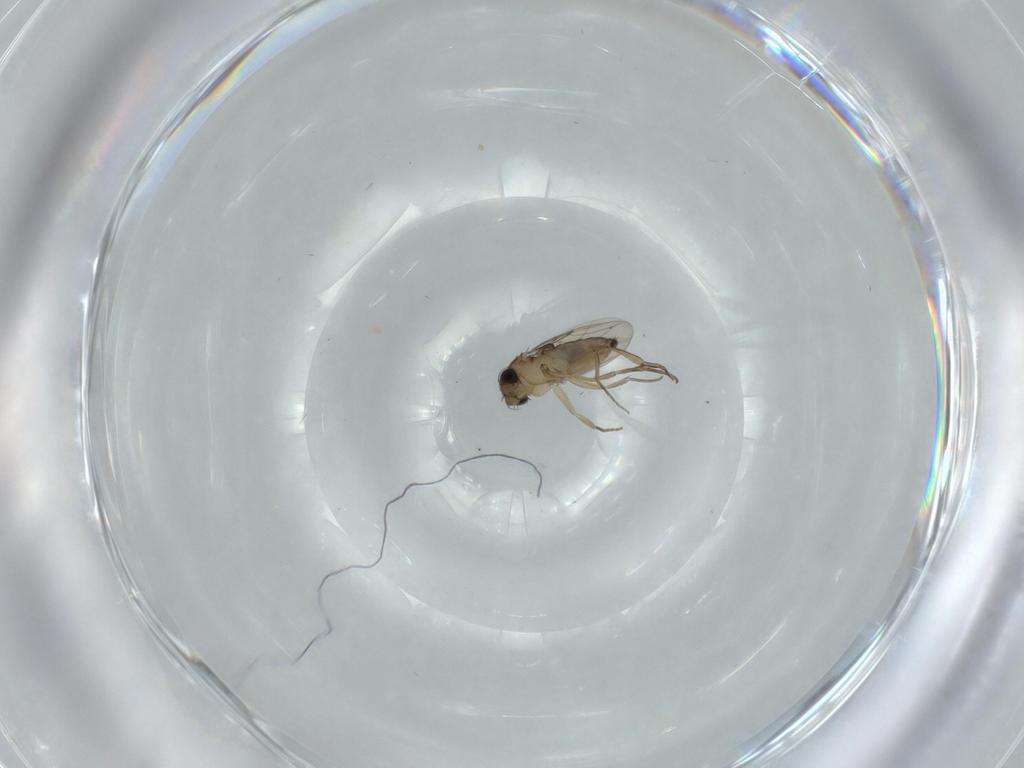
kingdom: Animalia
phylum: Arthropoda
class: Insecta
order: Diptera
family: Phoridae
